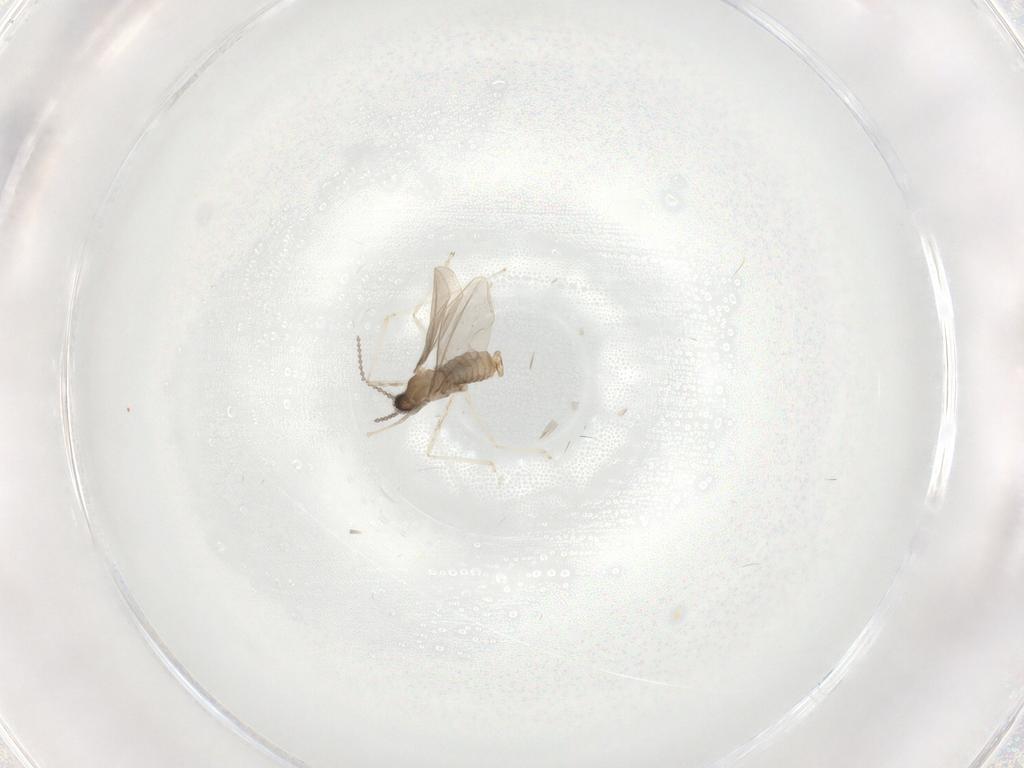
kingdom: Animalia
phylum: Arthropoda
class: Insecta
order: Diptera
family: Cecidomyiidae
